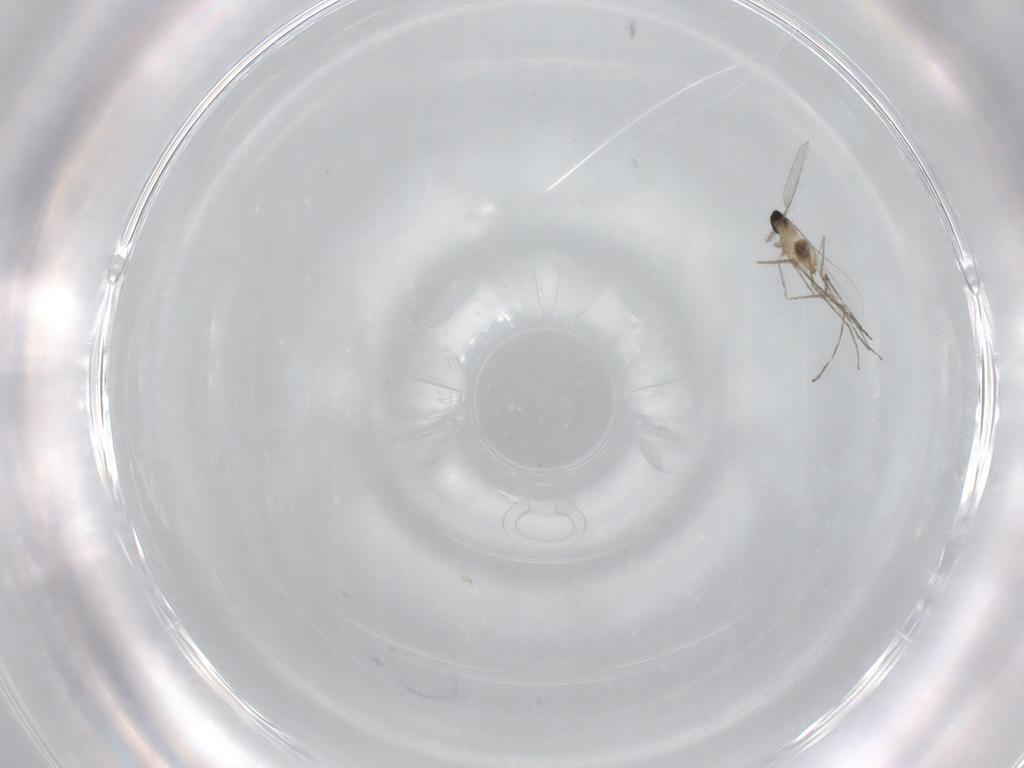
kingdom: Animalia
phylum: Arthropoda
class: Insecta
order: Diptera
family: Cecidomyiidae
